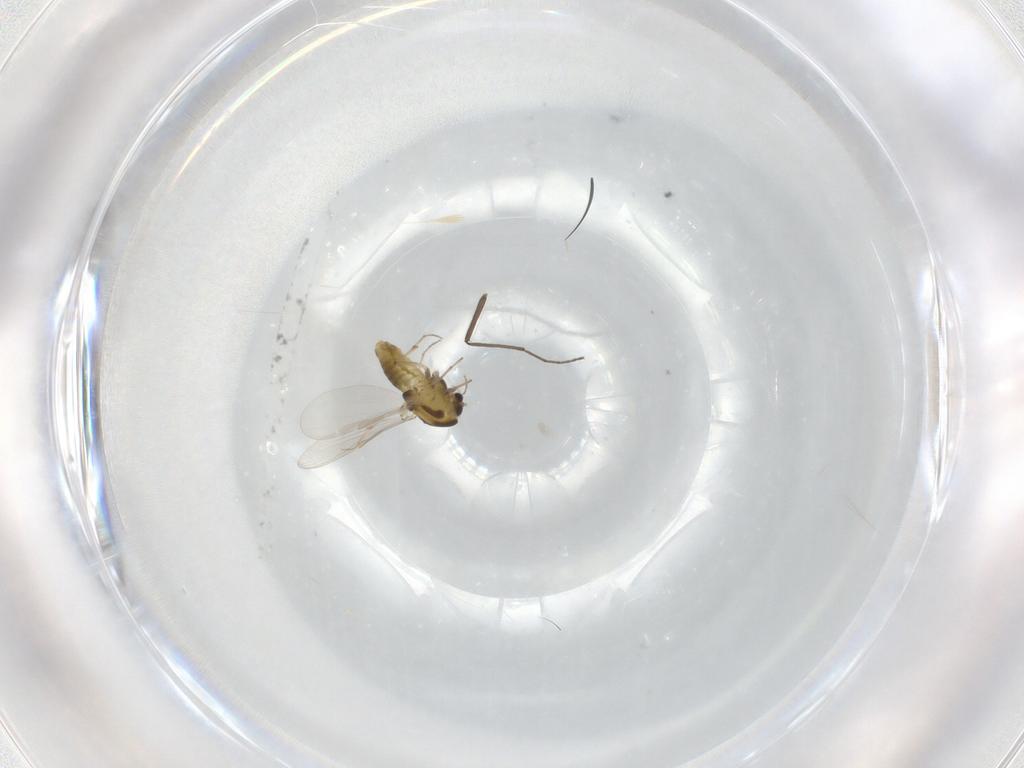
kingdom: Animalia
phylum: Arthropoda
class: Insecta
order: Diptera
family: Chironomidae
